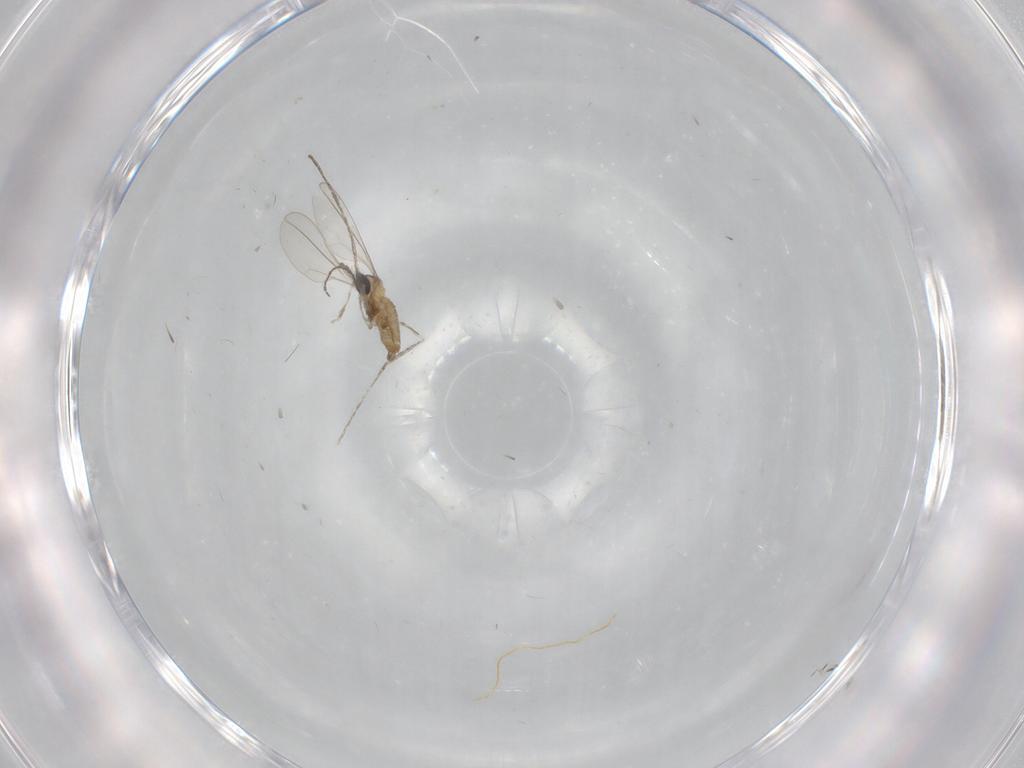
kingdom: Animalia
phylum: Arthropoda
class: Insecta
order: Diptera
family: Cecidomyiidae
